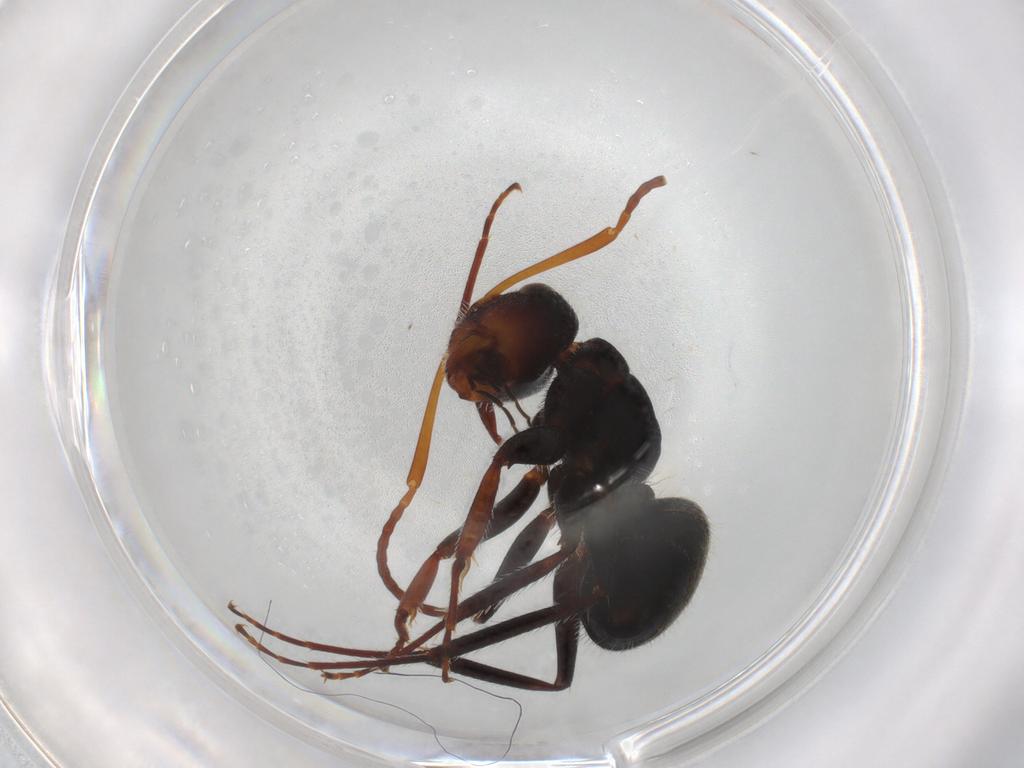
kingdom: Animalia
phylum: Arthropoda
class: Insecta
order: Hymenoptera
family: Formicidae
